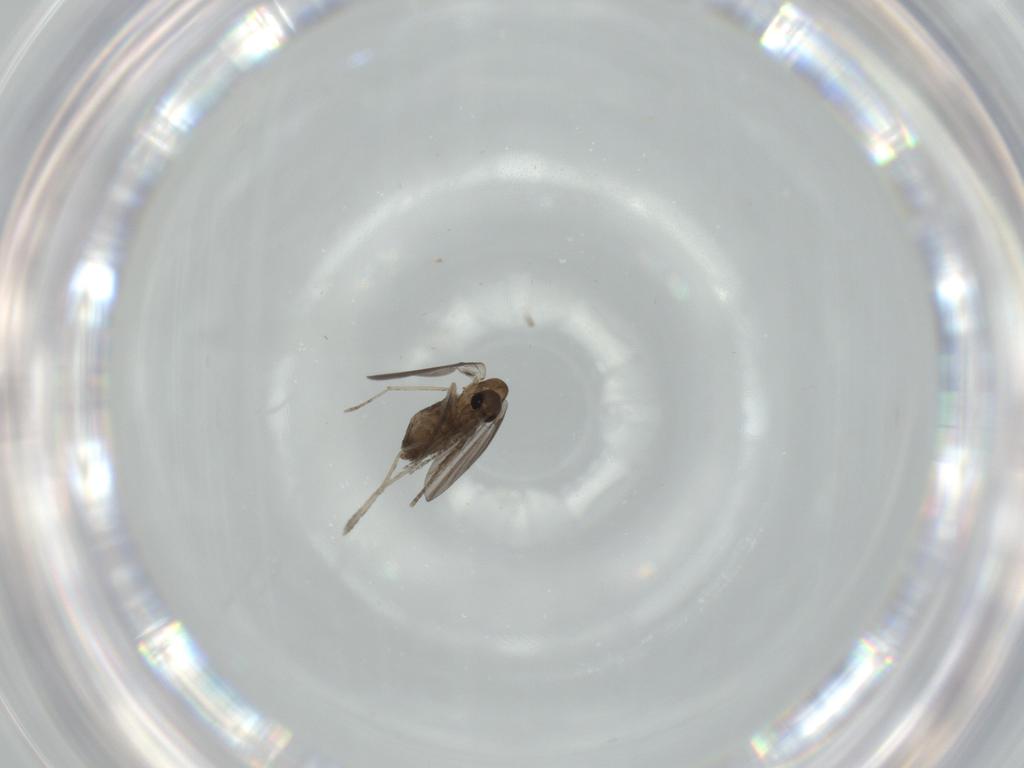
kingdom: Animalia
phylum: Arthropoda
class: Insecta
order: Diptera
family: Psychodidae
